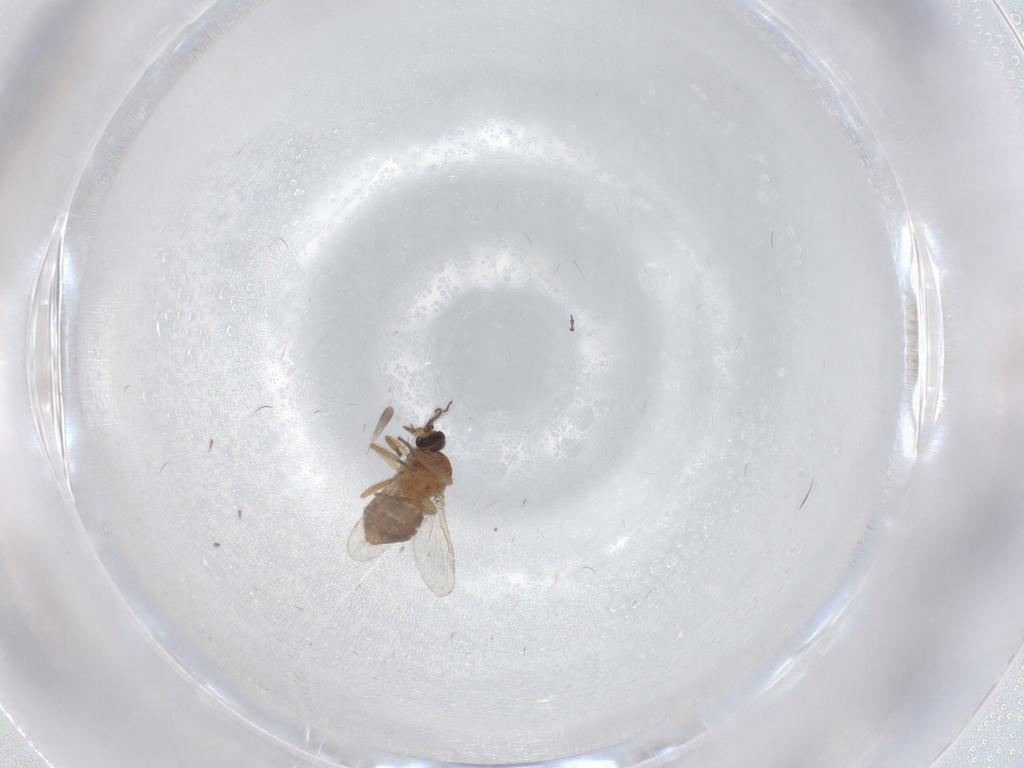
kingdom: Animalia
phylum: Arthropoda
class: Insecta
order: Diptera
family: Ceratopogonidae
